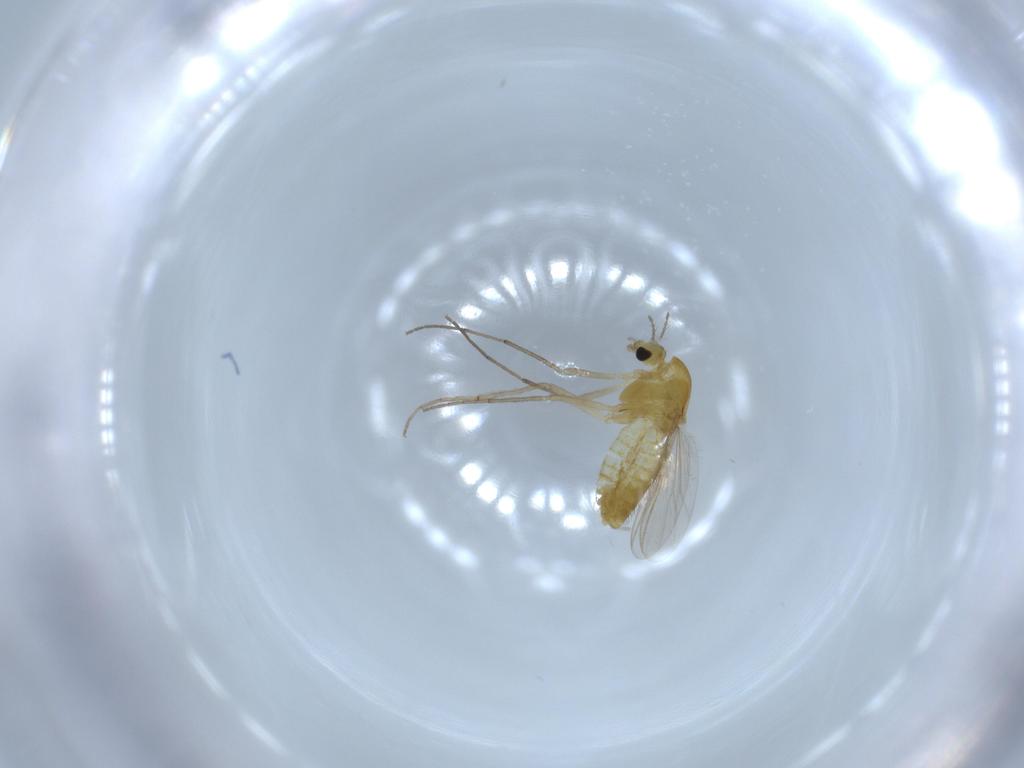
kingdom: Animalia
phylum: Arthropoda
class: Insecta
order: Diptera
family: Chironomidae
